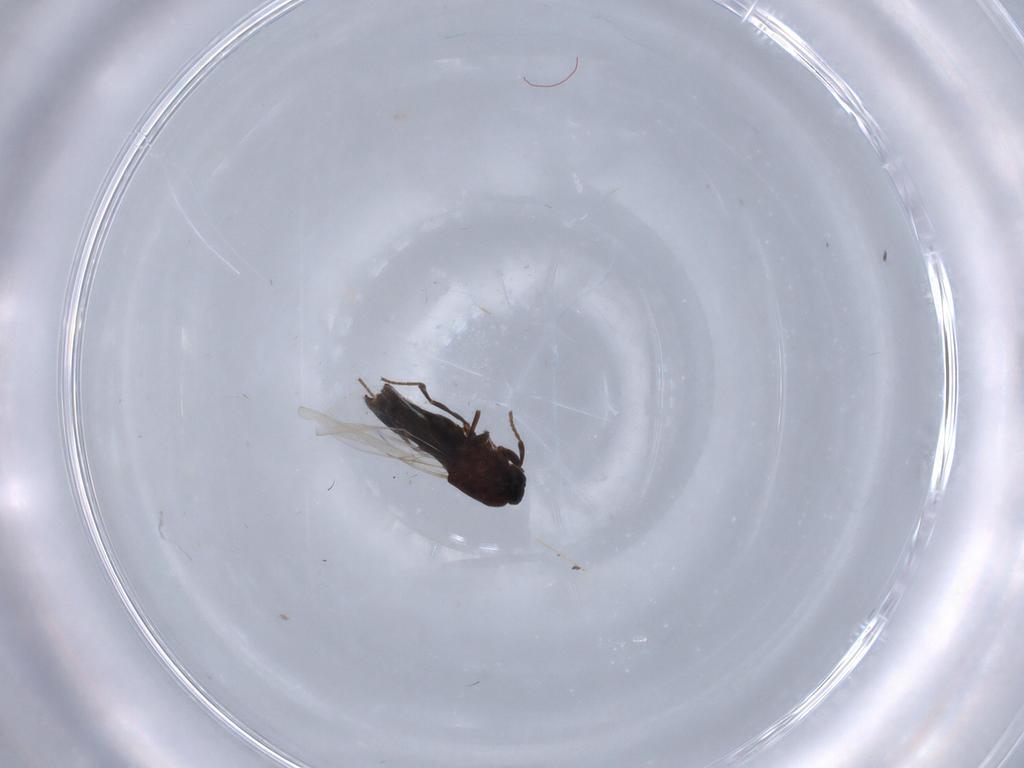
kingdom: Animalia
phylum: Arthropoda
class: Insecta
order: Diptera
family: Scatopsidae
